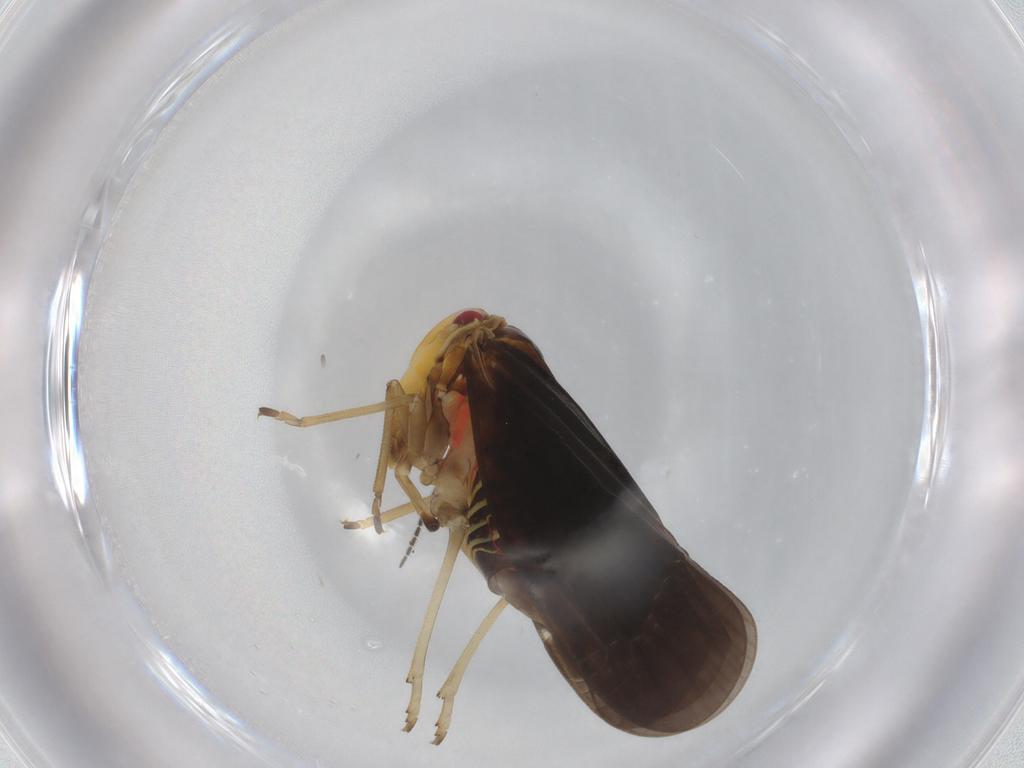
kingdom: Animalia
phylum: Arthropoda
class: Insecta
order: Hemiptera
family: Derbidae
